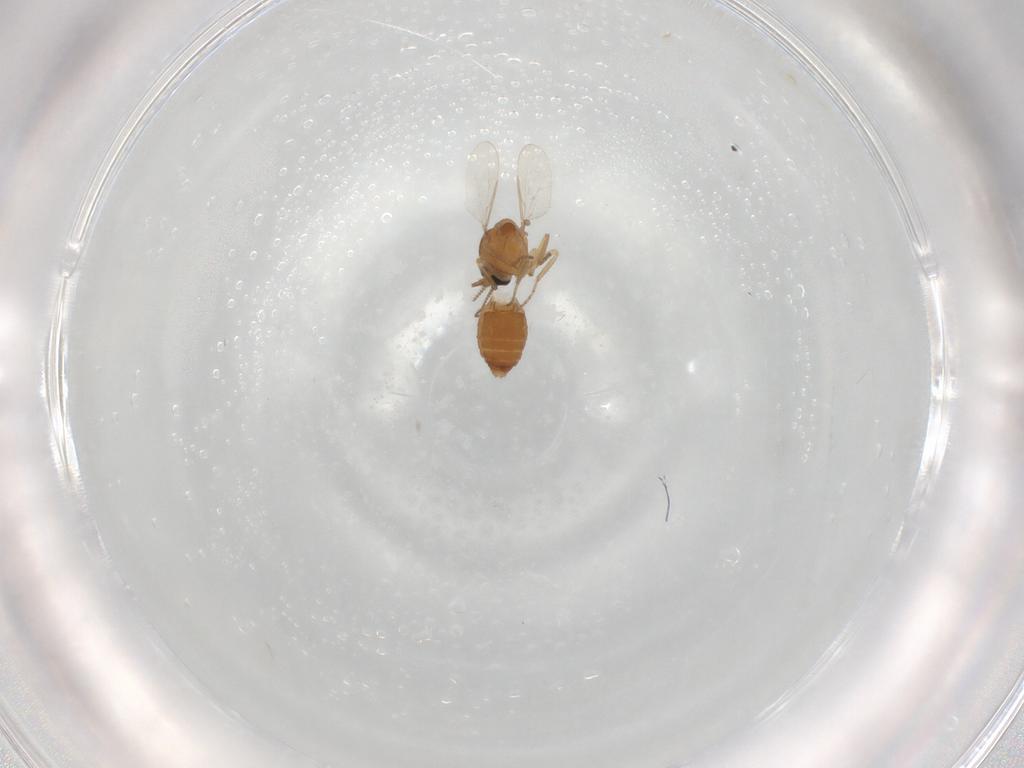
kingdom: Animalia
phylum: Arthropoda
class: Insecta
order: Diptera
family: Ceratopogonidae
